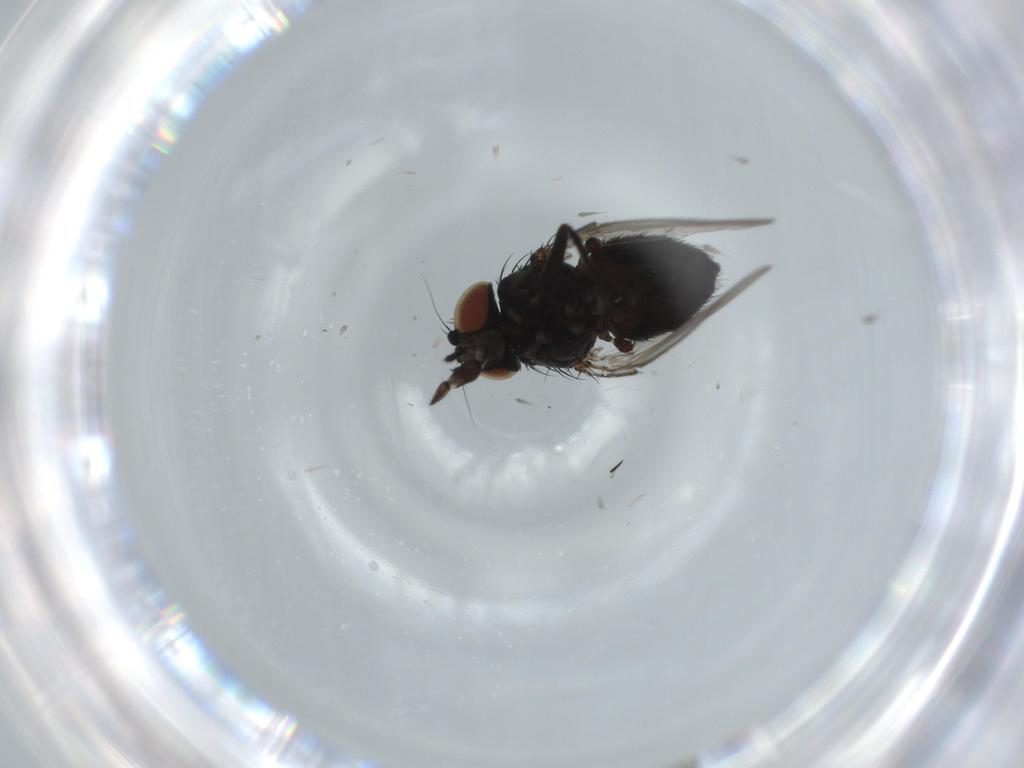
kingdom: Animalia
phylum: Arthropoda
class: Insecta
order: Diptera
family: Milichiidae
